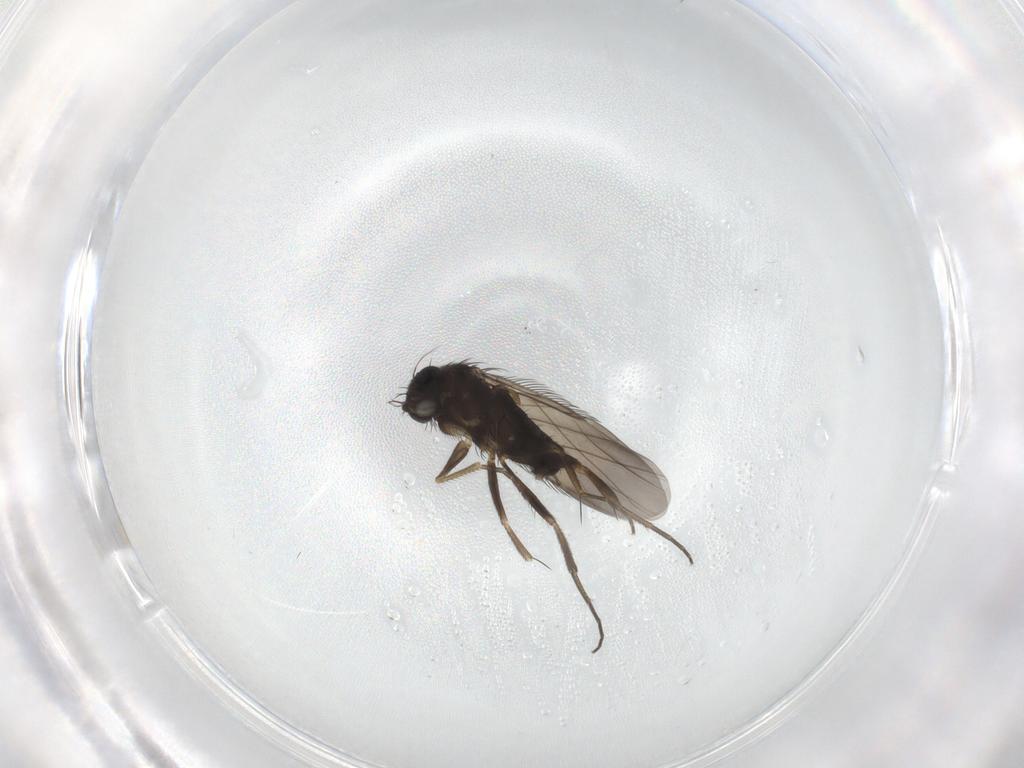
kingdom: Animalia
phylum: Arthropoda
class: Insecta
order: Diptera
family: Phoridae
